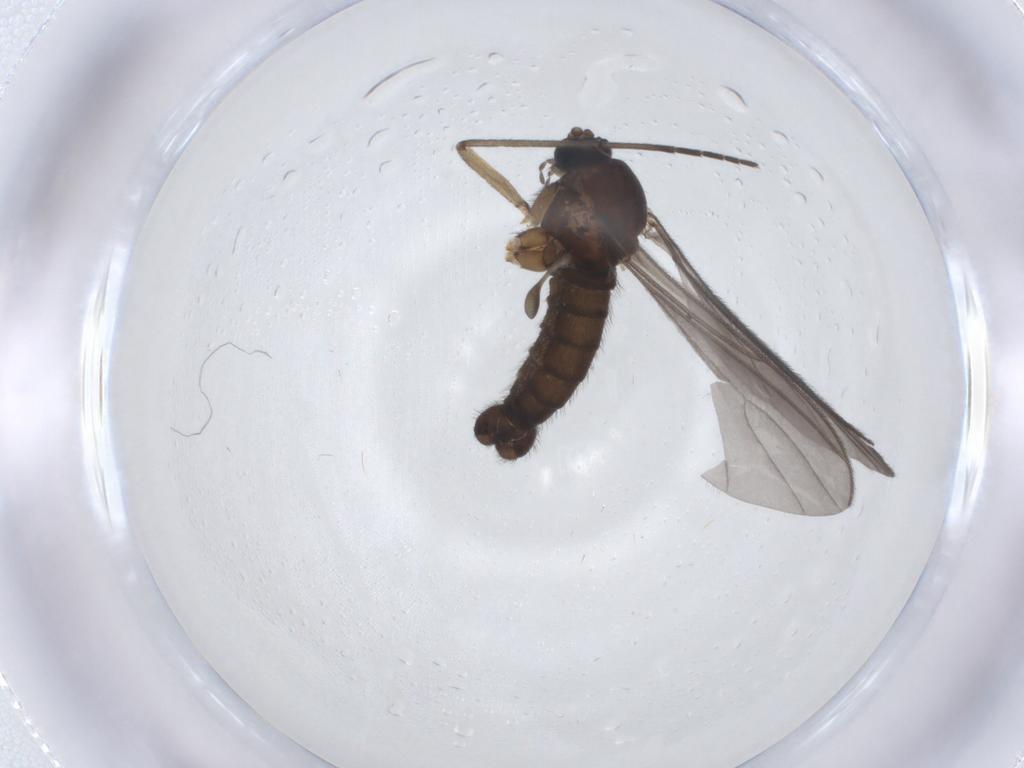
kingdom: Animalia
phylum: Arthropoda
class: Insecta
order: Diptera
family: Sciaridae
